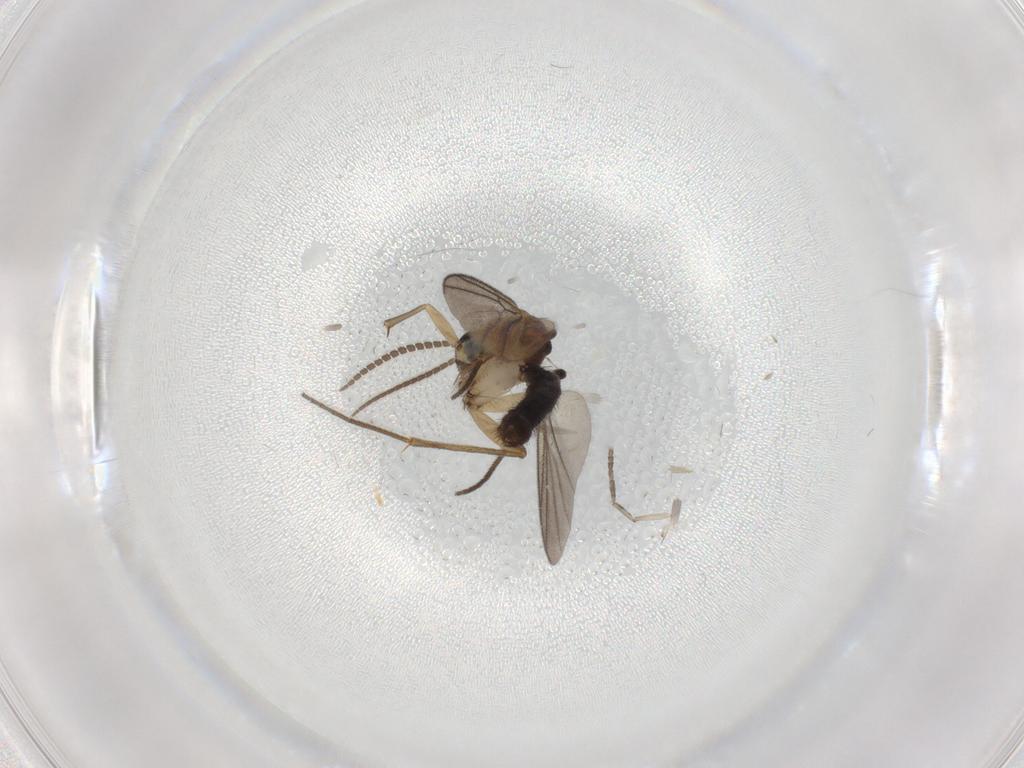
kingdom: Animalia
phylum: Arthropoda
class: Insecta
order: Diptera
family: Mycetophilidae
